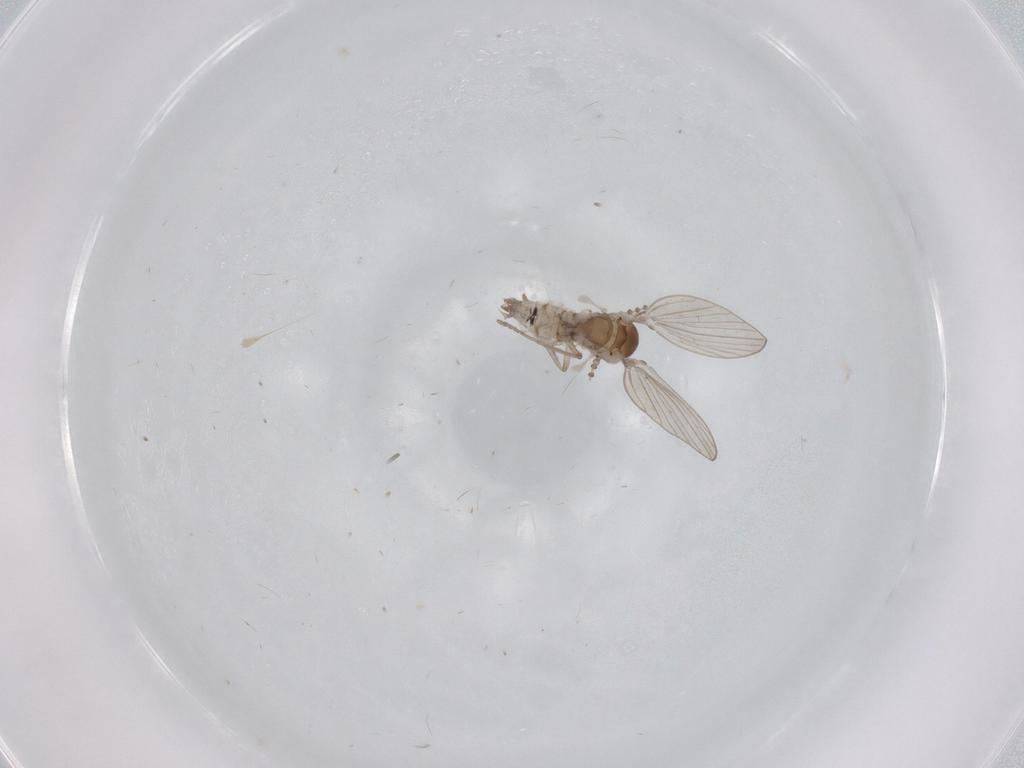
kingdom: Animalia
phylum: Arthropoda
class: Insecta
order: Diptera
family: Psychodidae
